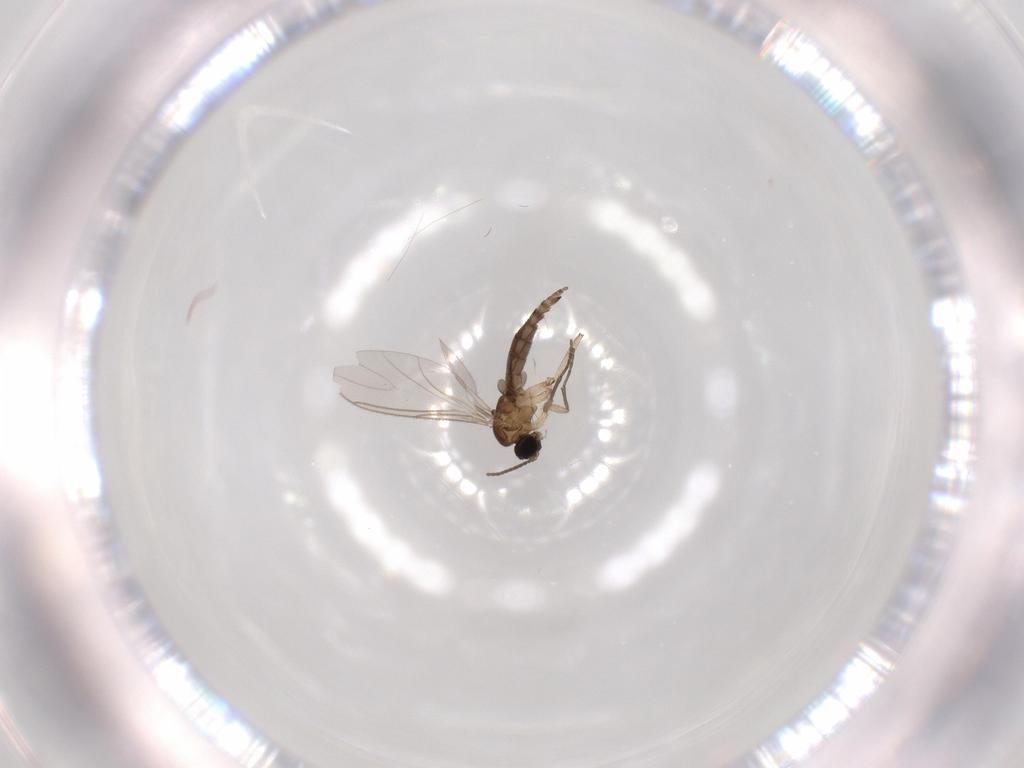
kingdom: Animalia
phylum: Arthropoda
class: Insecta
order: Diptera
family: Sciaridae
